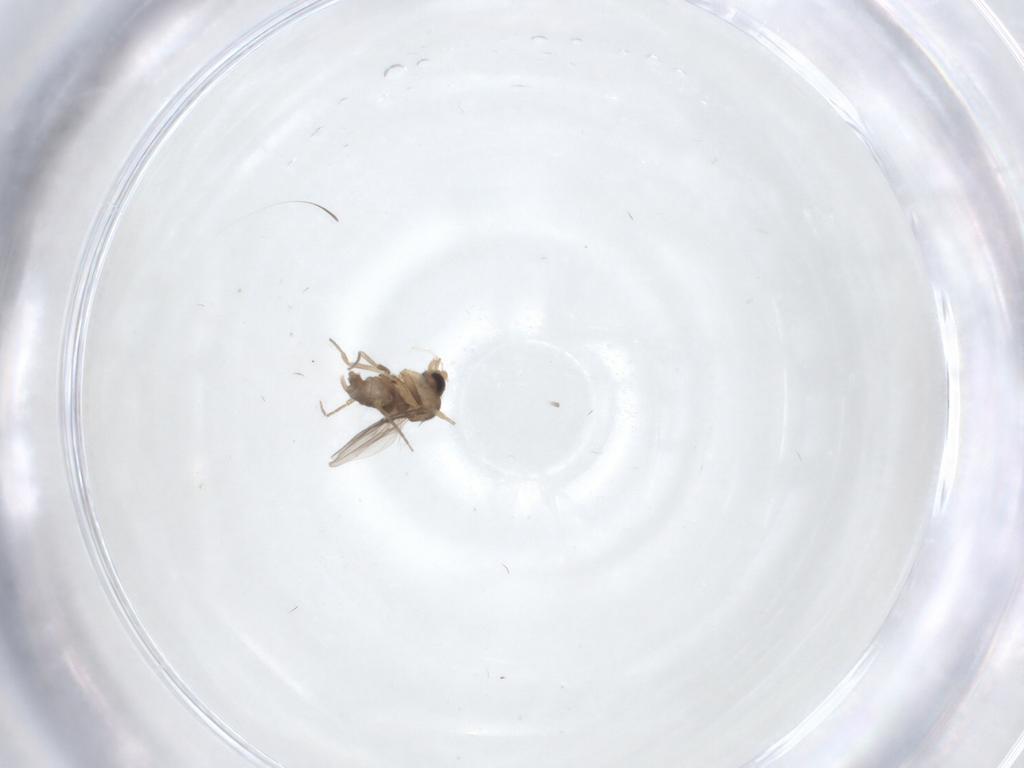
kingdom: Animalia
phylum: Arthropoda
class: Insecta
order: Diptera
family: Phoridae
